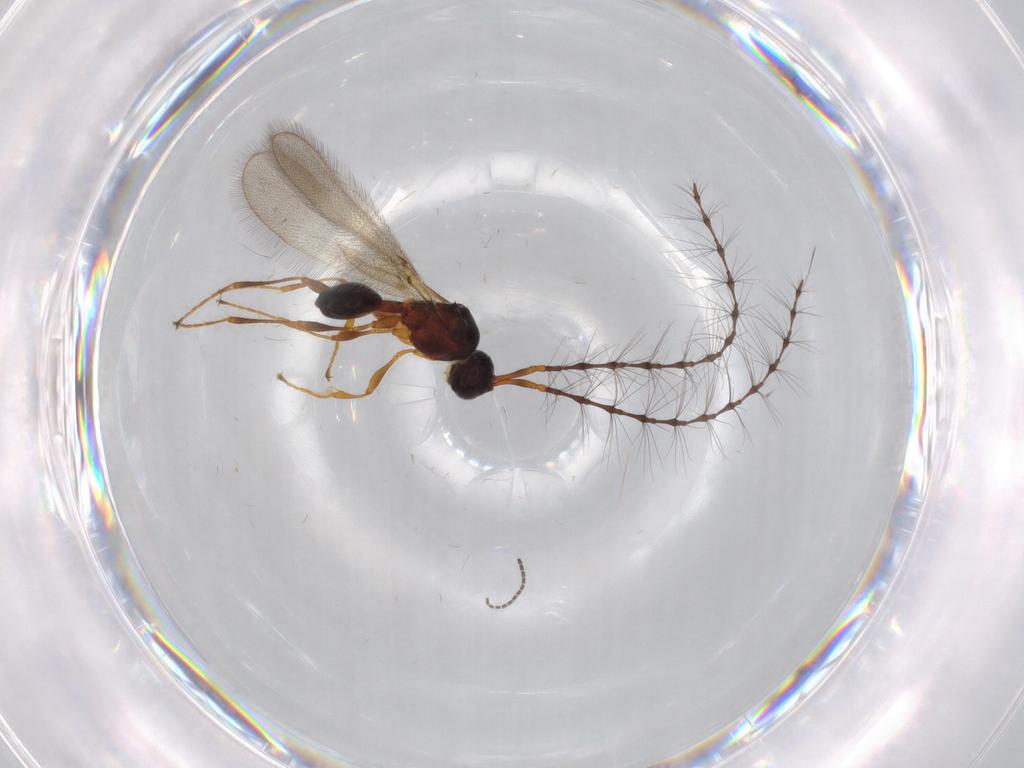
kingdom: Animalia
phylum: Arthropoda
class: Insecta
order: Hymenoptera
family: Diapriidae
